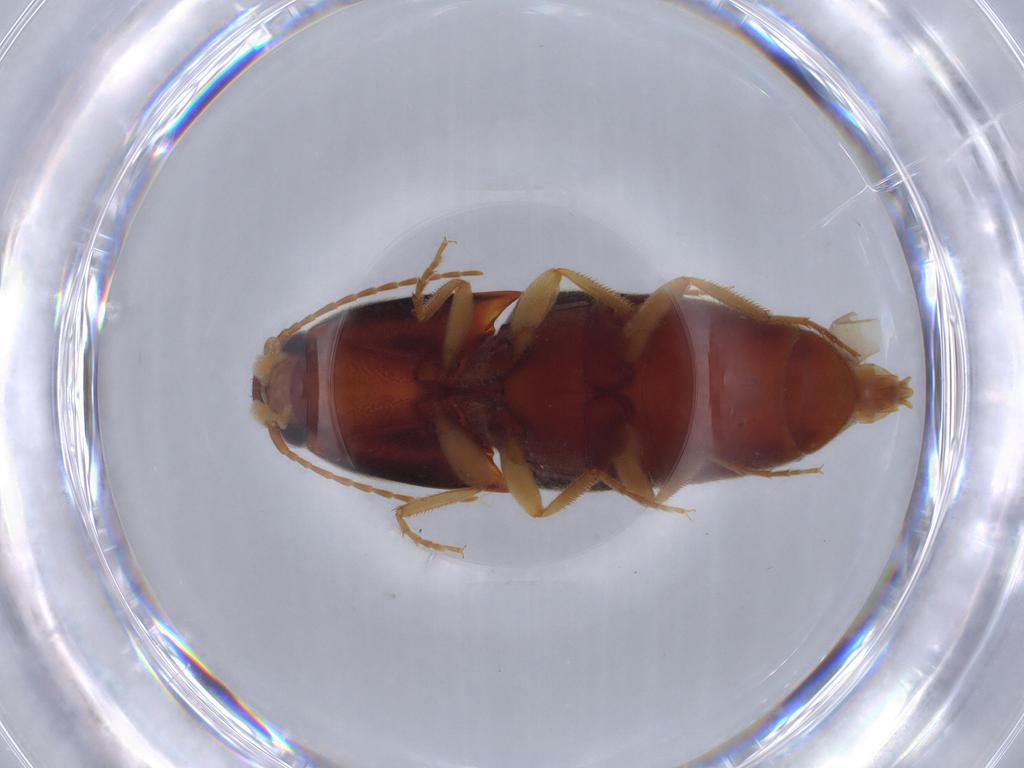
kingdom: Animalia
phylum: Arthropoda
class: Insecta
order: Coleoptera
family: Elateridae
